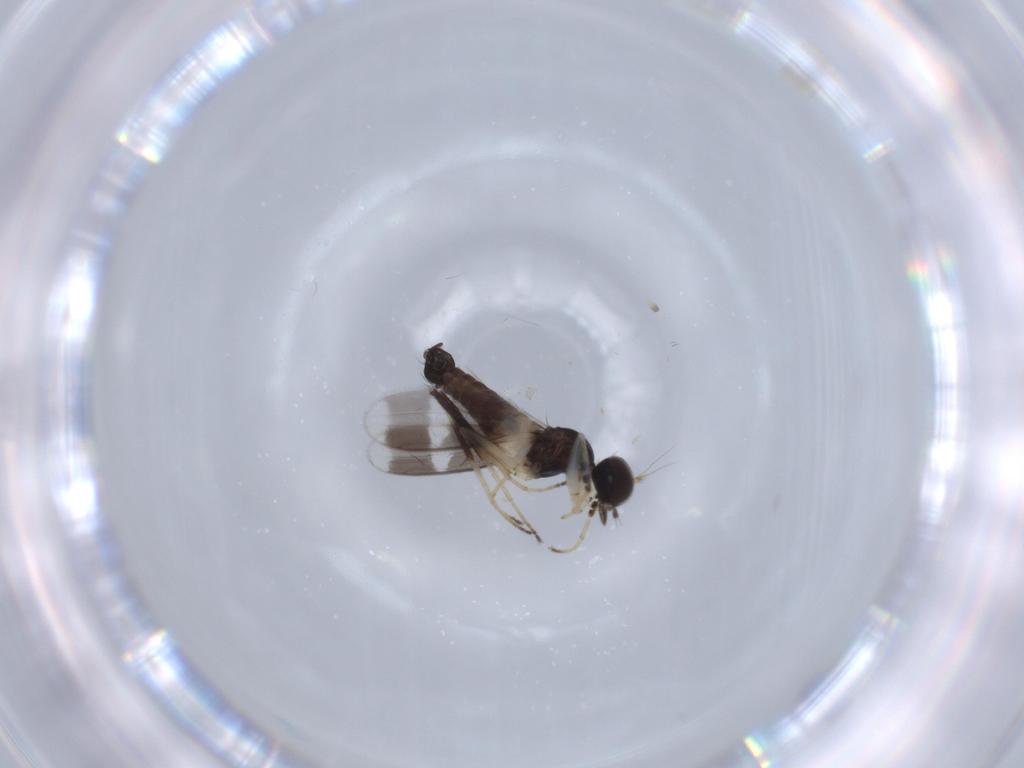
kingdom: Animalia
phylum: Arthropoda
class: Insecta
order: Diptera
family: Hybotidae
